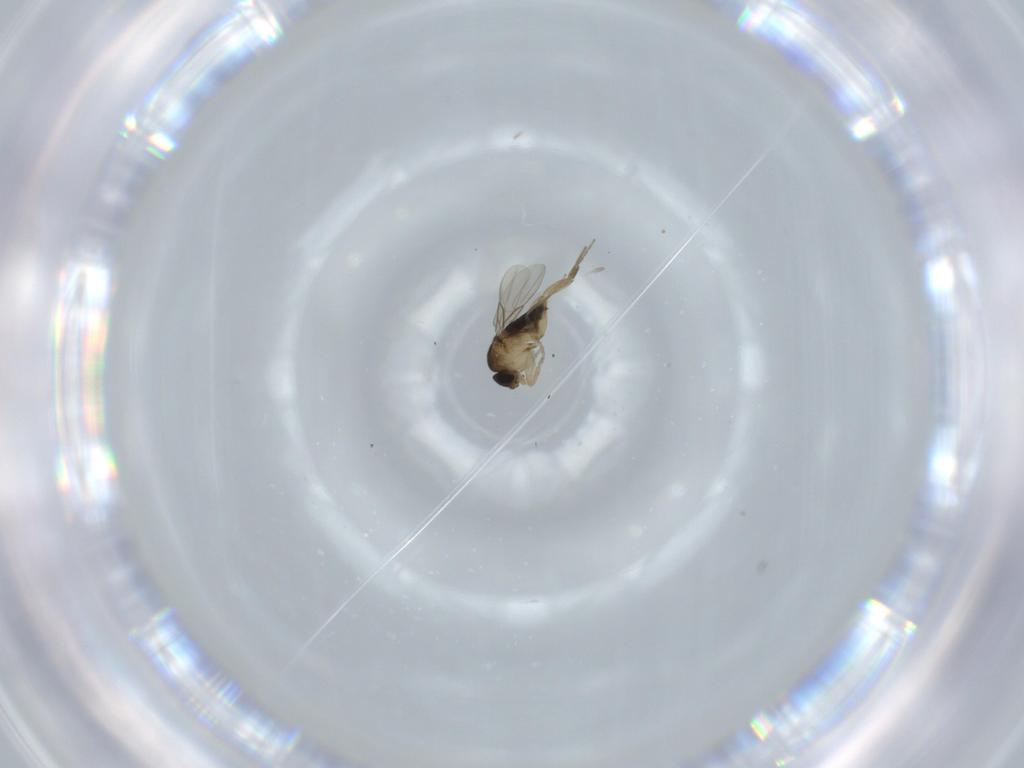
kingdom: Animalia
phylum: Arthropoda
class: Insecta
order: Diptera
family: Phoridae
